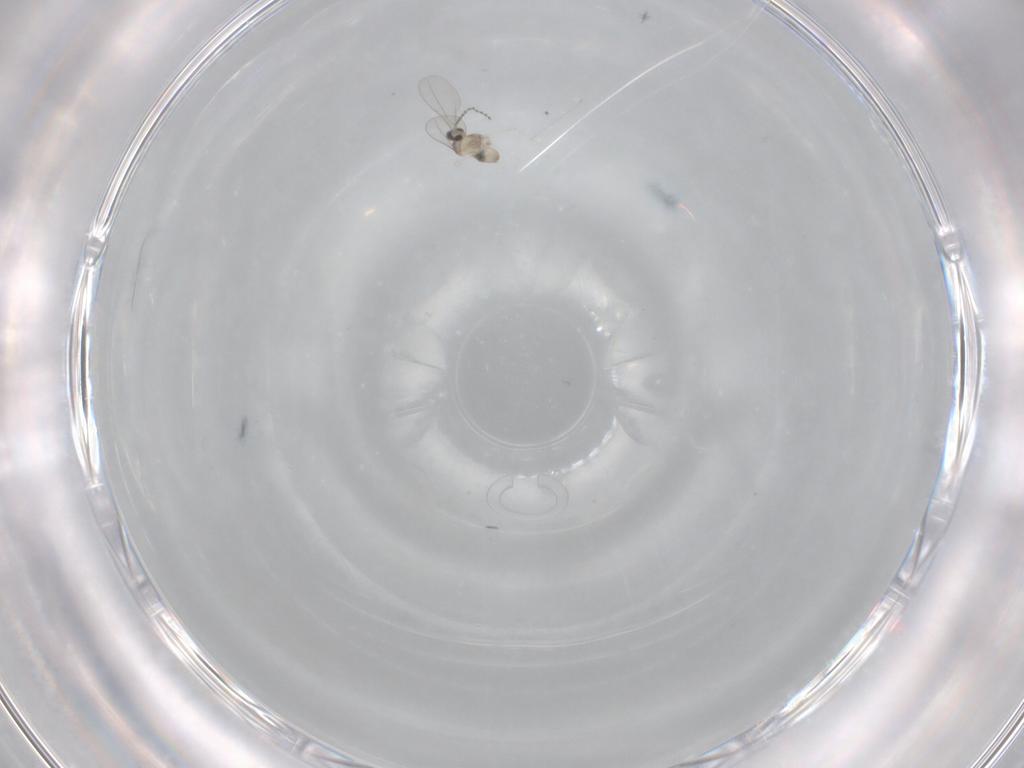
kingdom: Animalia
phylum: Arthropoda
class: Insecta
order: Diptera
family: Cecidomyiidae
